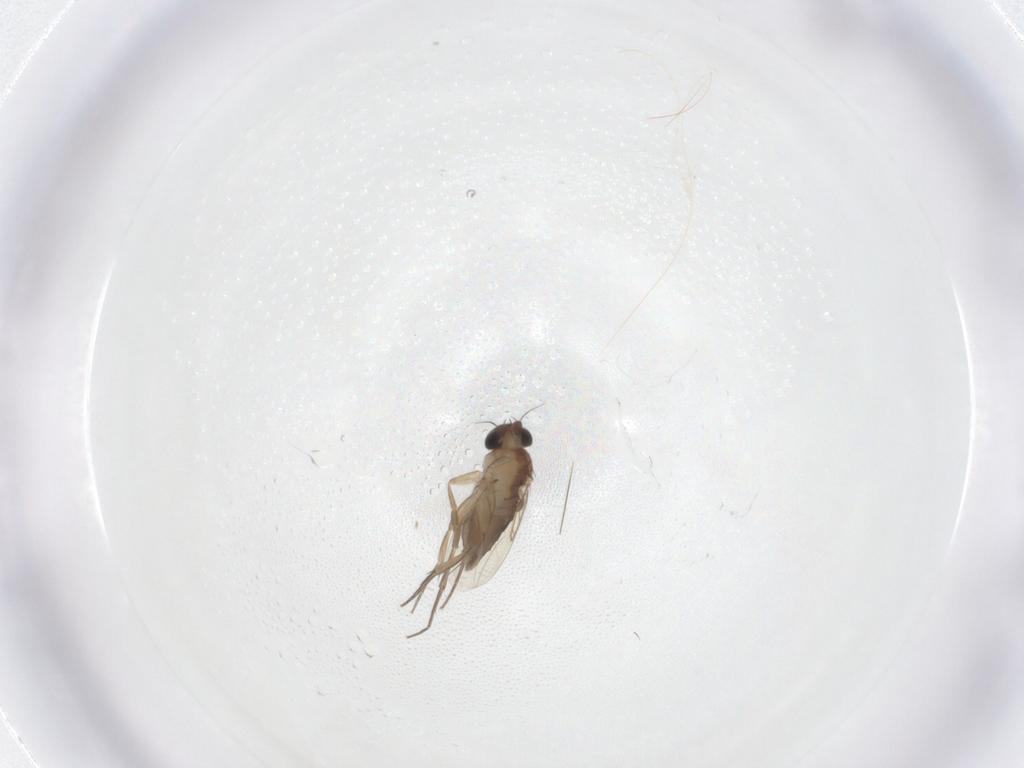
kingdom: Animalia
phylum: Arthropoda
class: Insecta
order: Diptera
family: Phoridae
